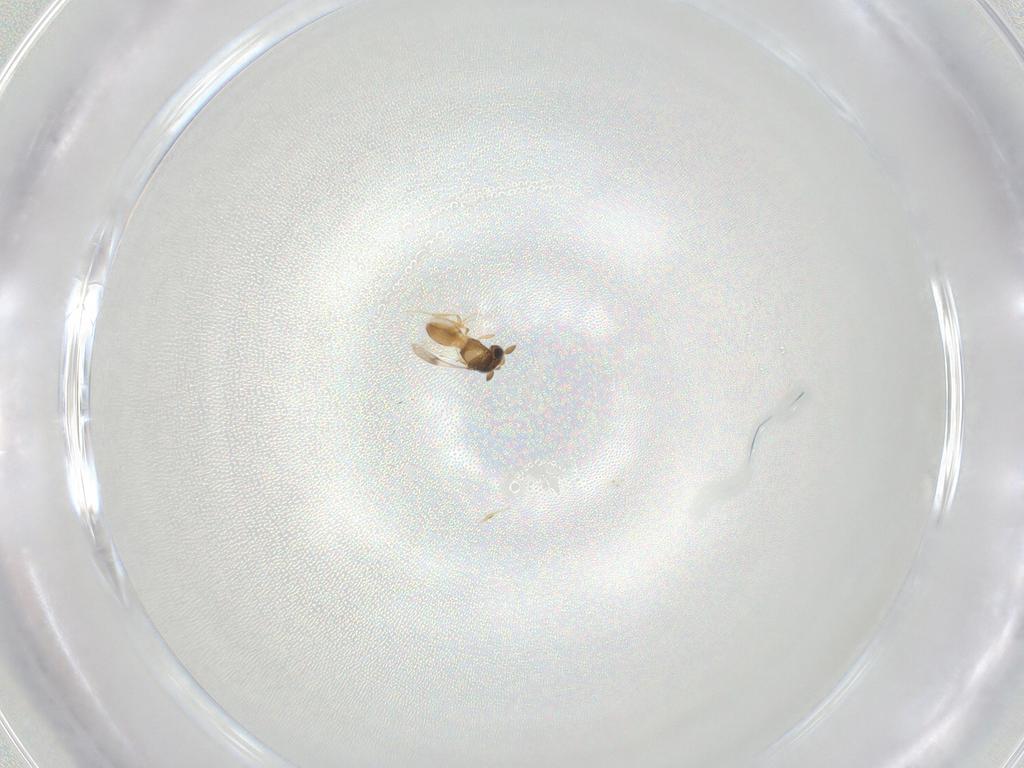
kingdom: Animalia
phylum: Arthropoda
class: Insecta
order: Hymenoptera
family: Scelionidae
